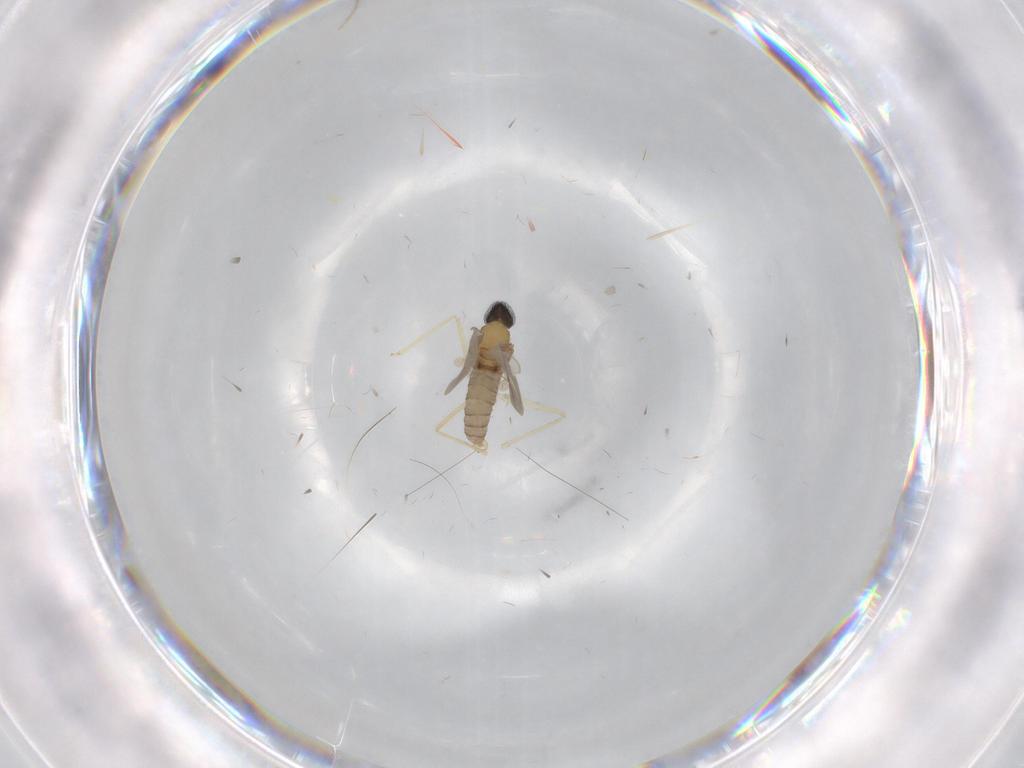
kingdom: Animalia
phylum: Arthropoda
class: Insecta
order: Diptera
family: Cecidomyiidae
